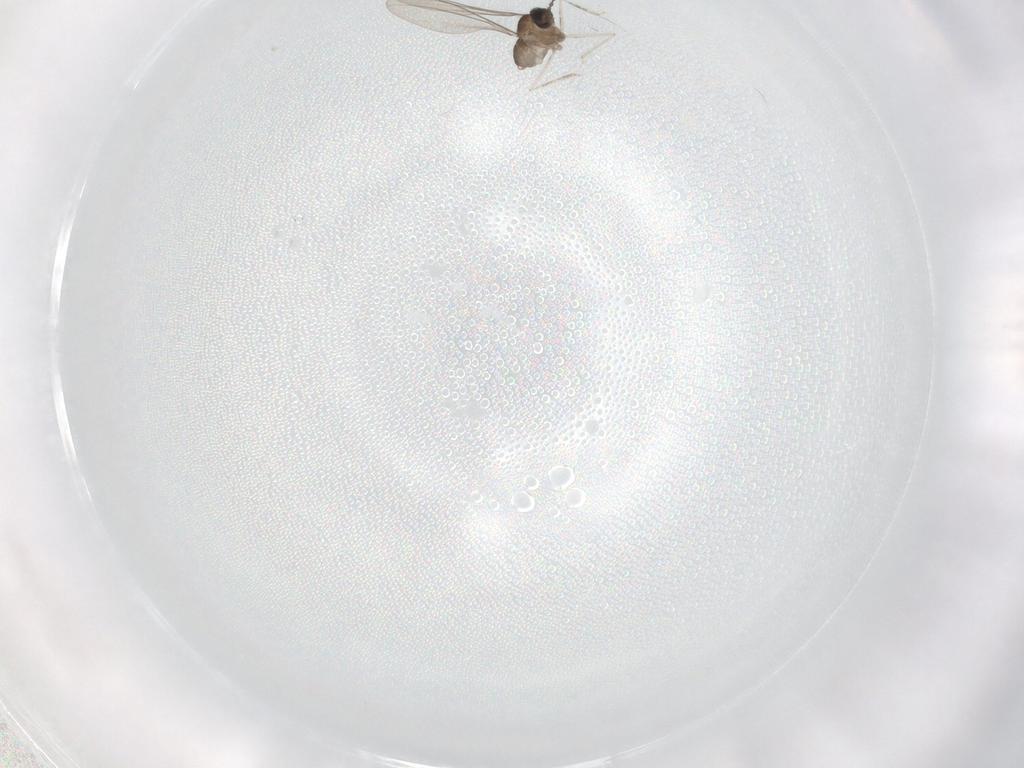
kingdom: Animalia
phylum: Arthropoda
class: Insecta
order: Diptera
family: Cecidomyiidae
